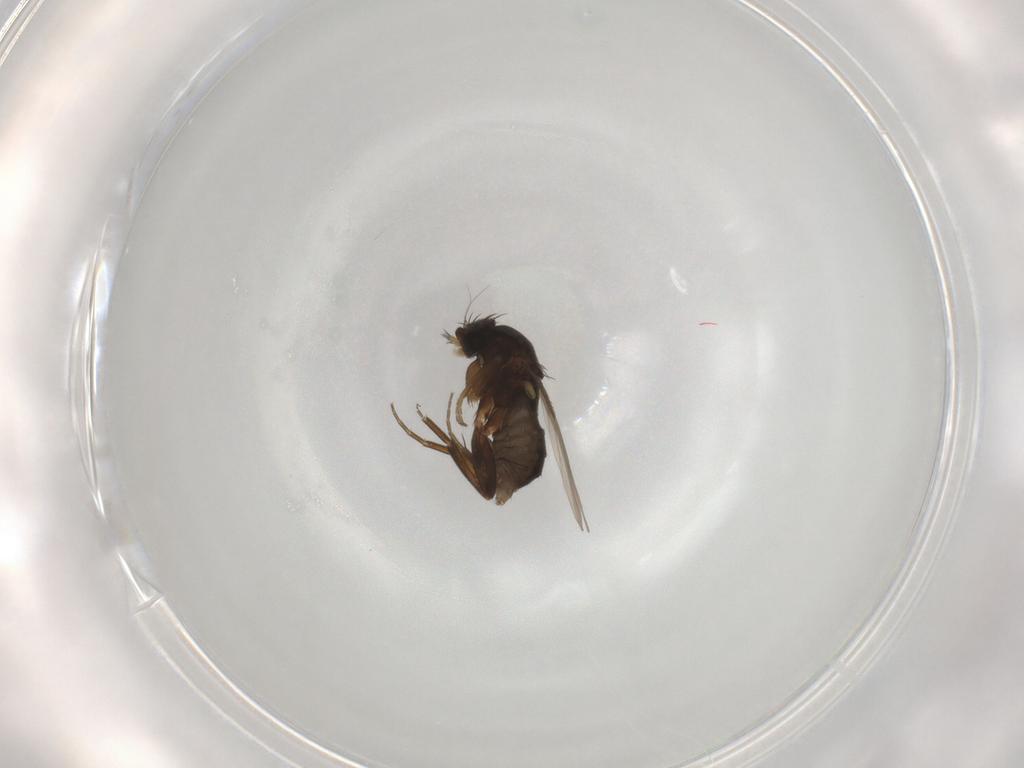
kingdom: Animalia
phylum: Arthropoda
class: Insecta
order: Diptera
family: Phoridae
